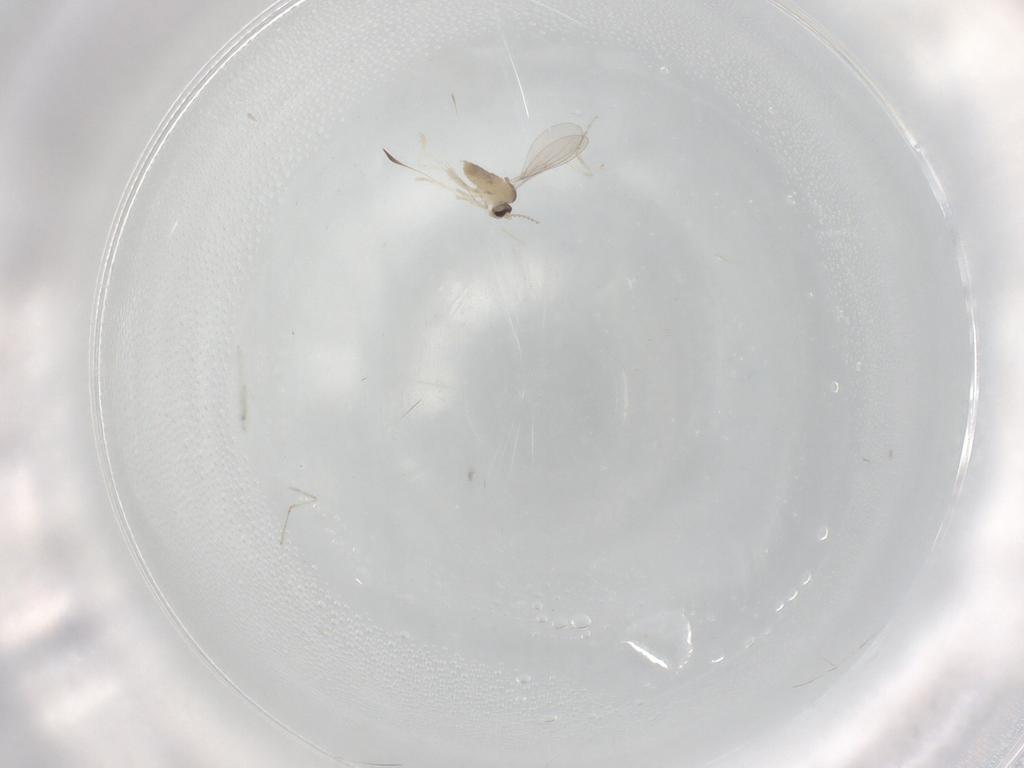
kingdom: Animalia
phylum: Arthropoda
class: Insecta
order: Diptera
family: Cecidomyiidae
